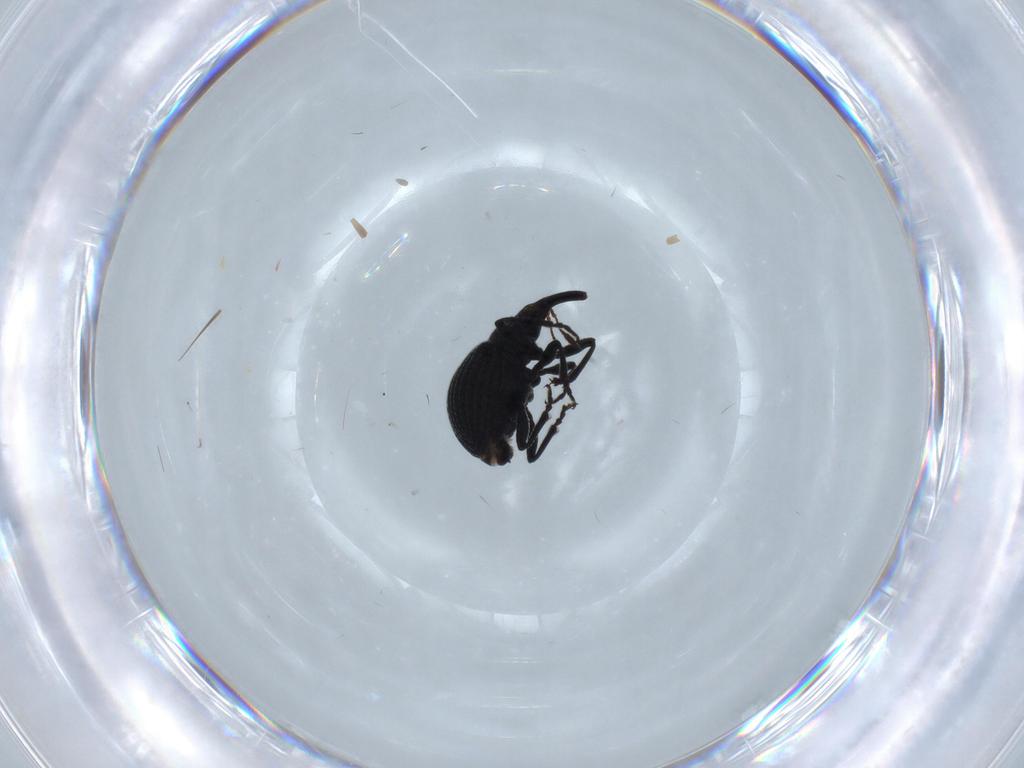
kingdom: Animalia
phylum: Arthropoda
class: Insecta
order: Coleoptera
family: Brentidae
